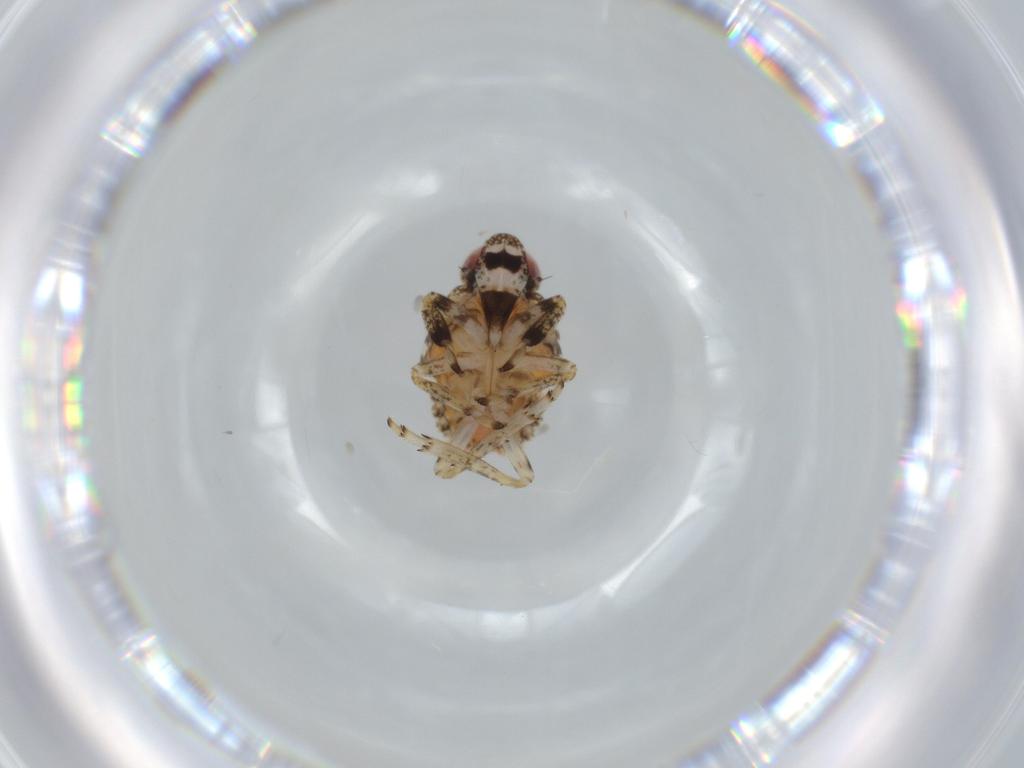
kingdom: Animalia
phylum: Arthropoda
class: Insecta
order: Hemiptera
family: Issidae
